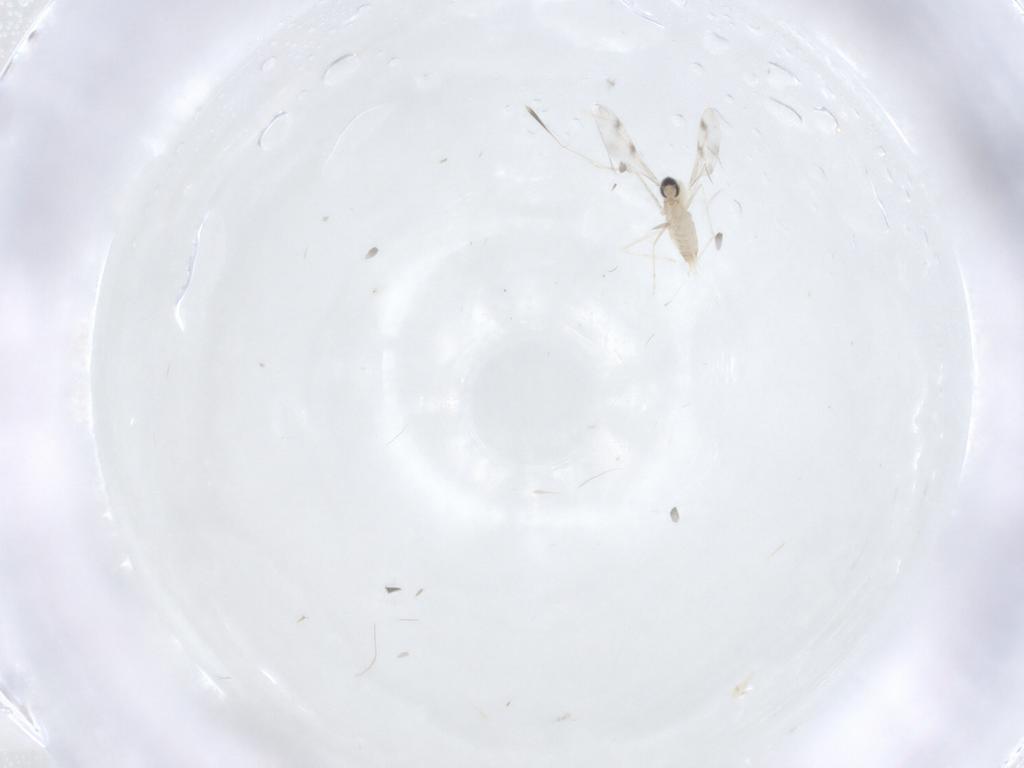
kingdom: Animalia
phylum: Arthropoda
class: Insecta
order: Diptera
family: Cecidomyiidae
